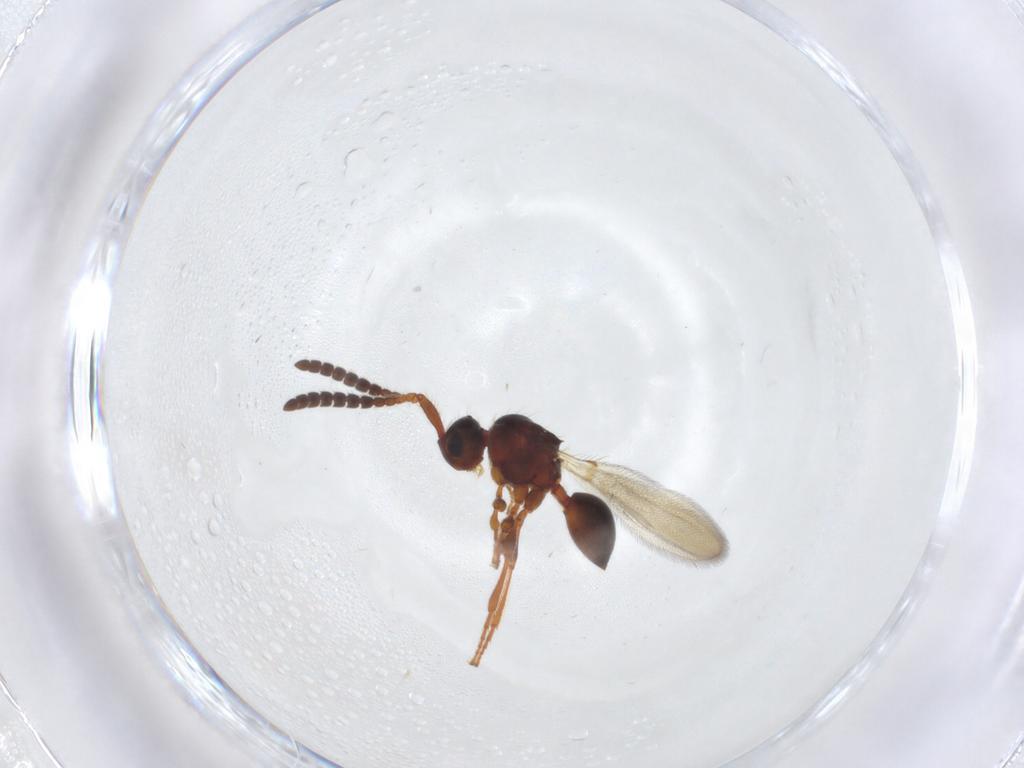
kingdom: Animalia
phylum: Arthropoda
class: Insecta
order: Hymenoptera
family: Diapriidae
